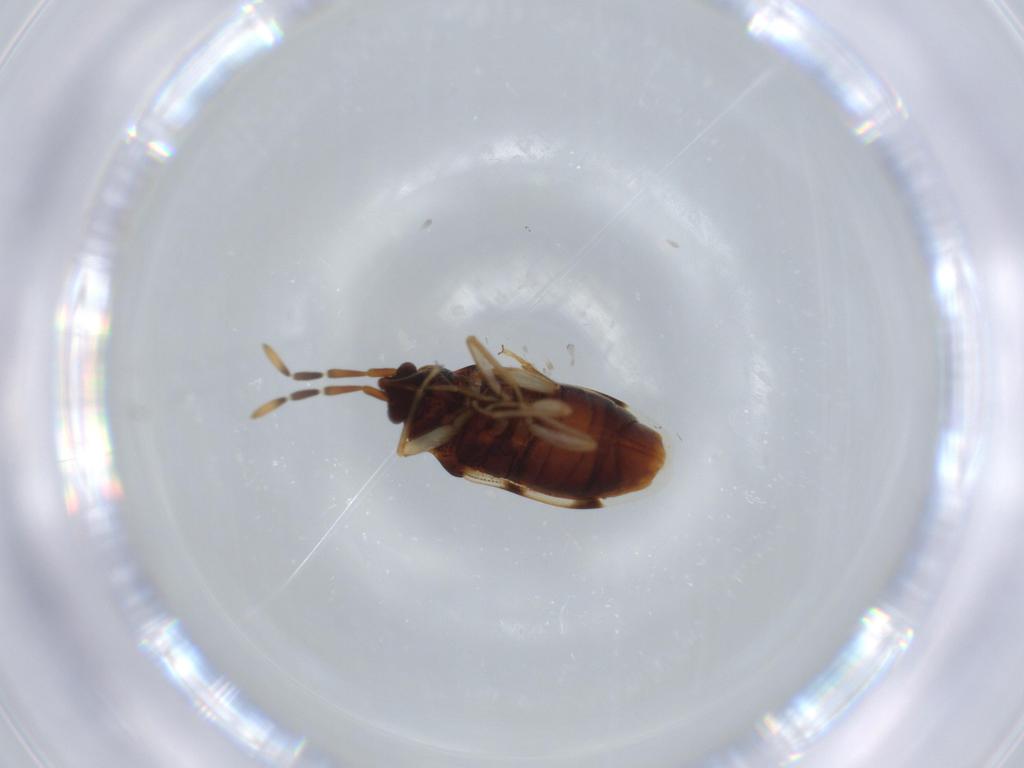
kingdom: Animalia
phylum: Arthropoda
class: Insecta
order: Hemiptera
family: Rhyparochromidae
